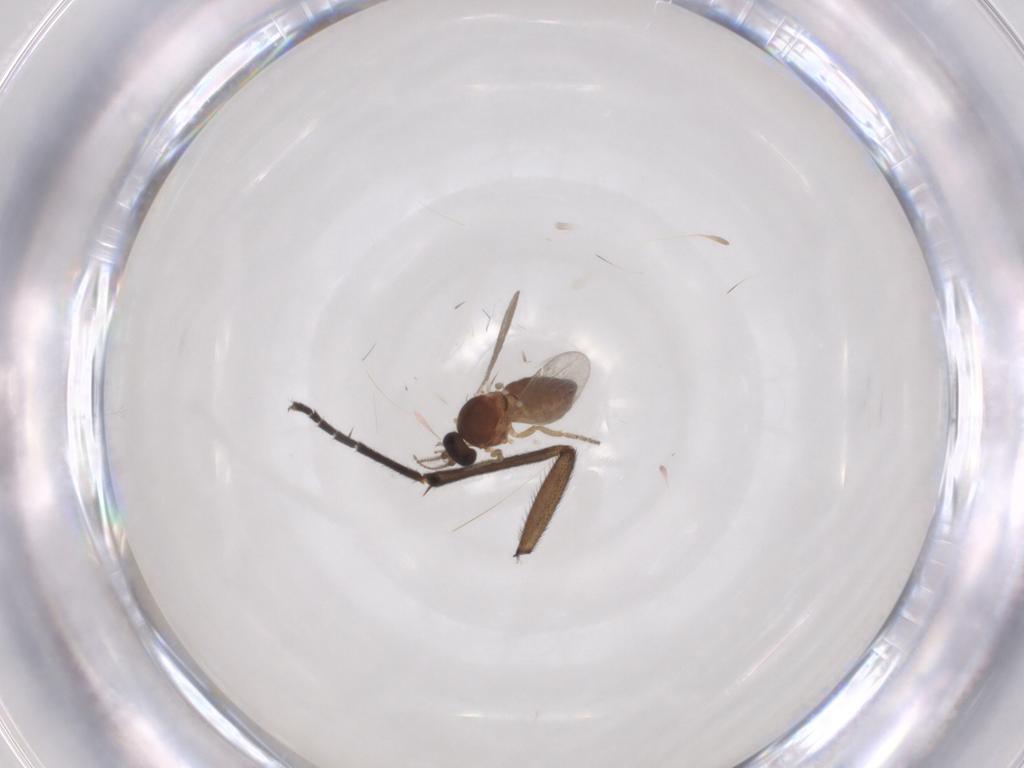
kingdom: Animalia
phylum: Arthropoda
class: Insecta
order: Diptera
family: Ceratopogonidae
